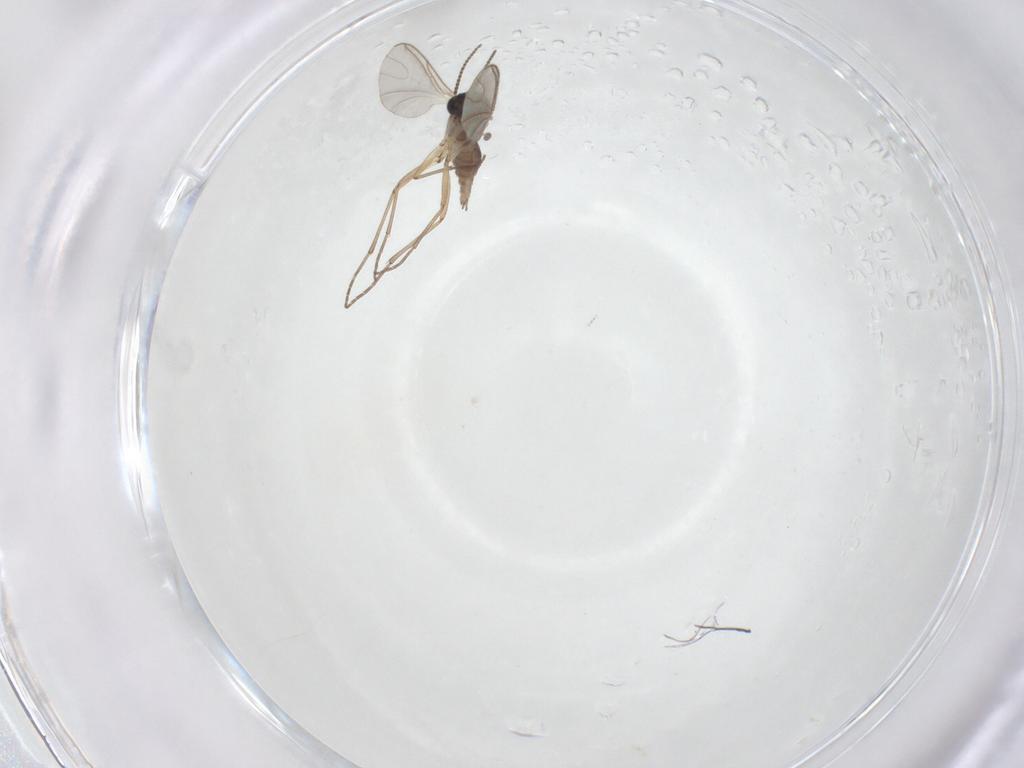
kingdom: Animalia
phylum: Arthropoda
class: Insecta
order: Diptera
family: Sciaridae
